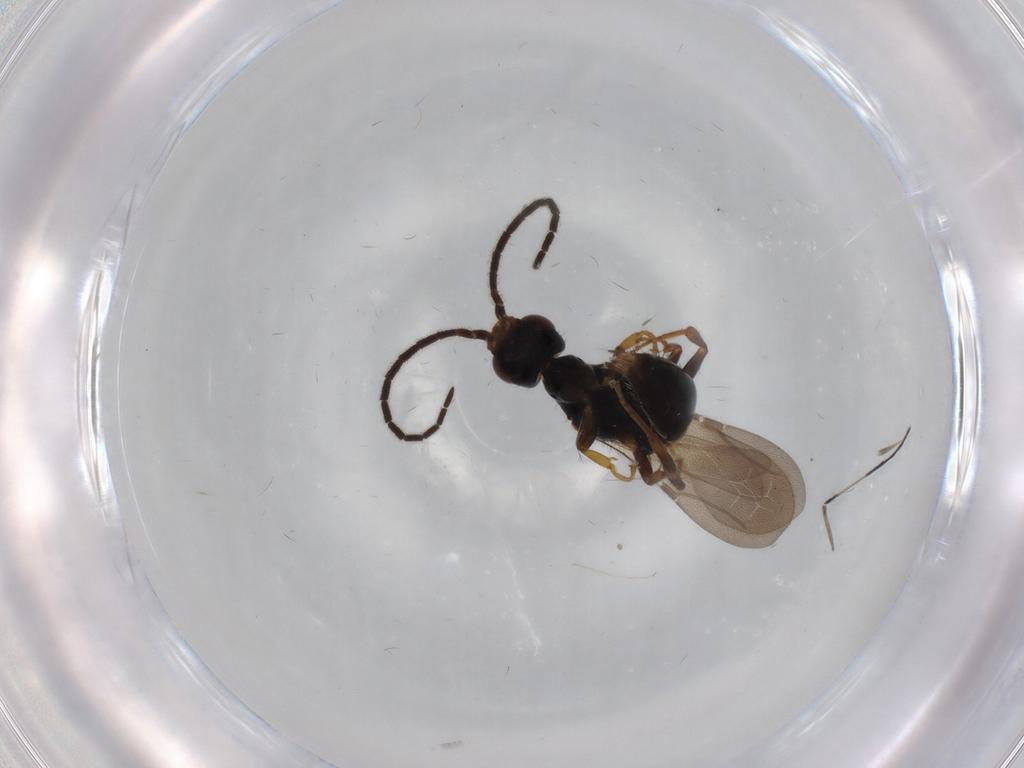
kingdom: Animalia
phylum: Arthropoda
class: Insecta
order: Hymenoptera
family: Bethylidae
